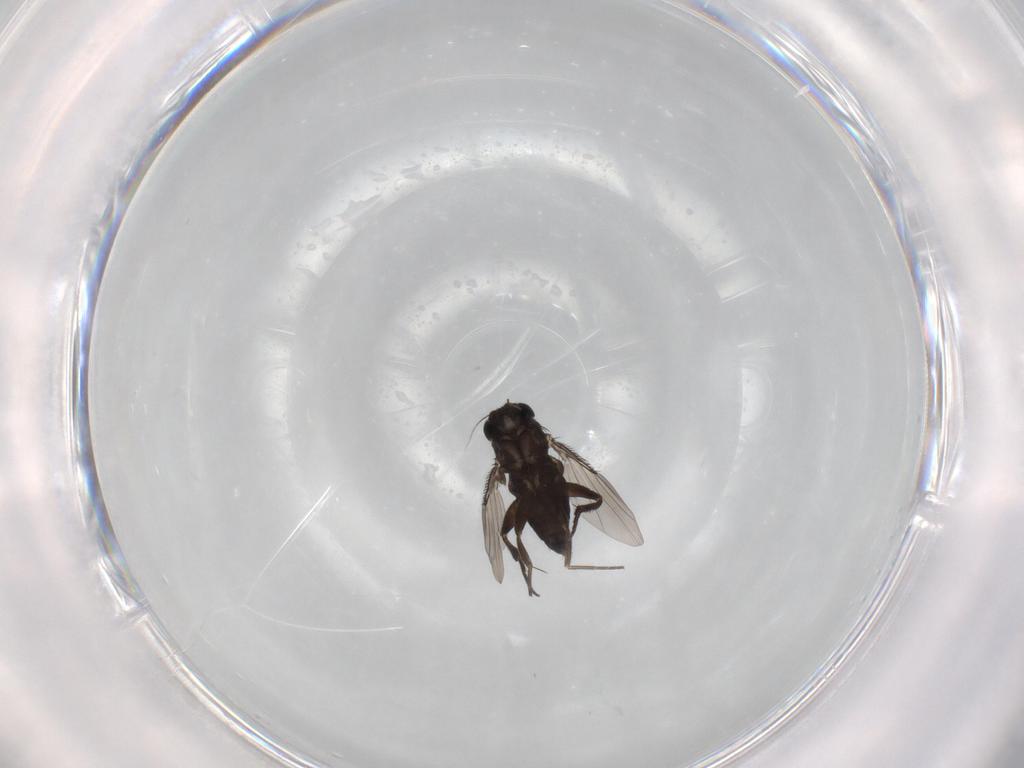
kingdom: Animalia
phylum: Arthropoda
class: Insecta
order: Diptera
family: Phoridae
